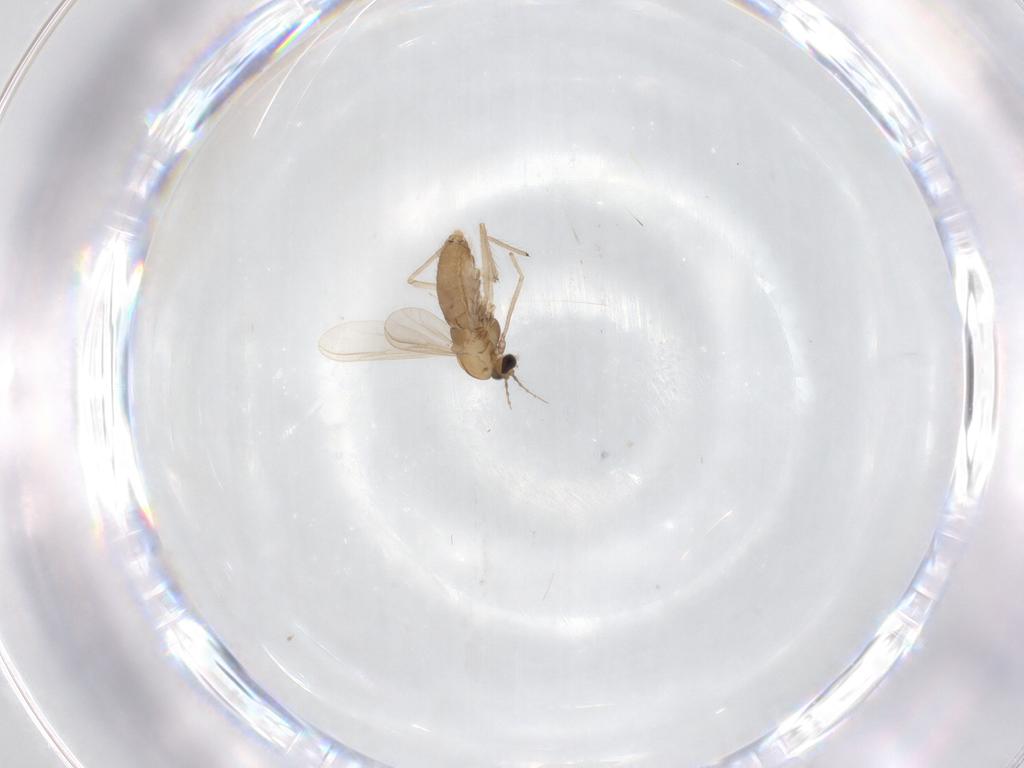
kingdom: Animalia
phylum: Arthropoda
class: Insecta
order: Diptera
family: Chironomidae
